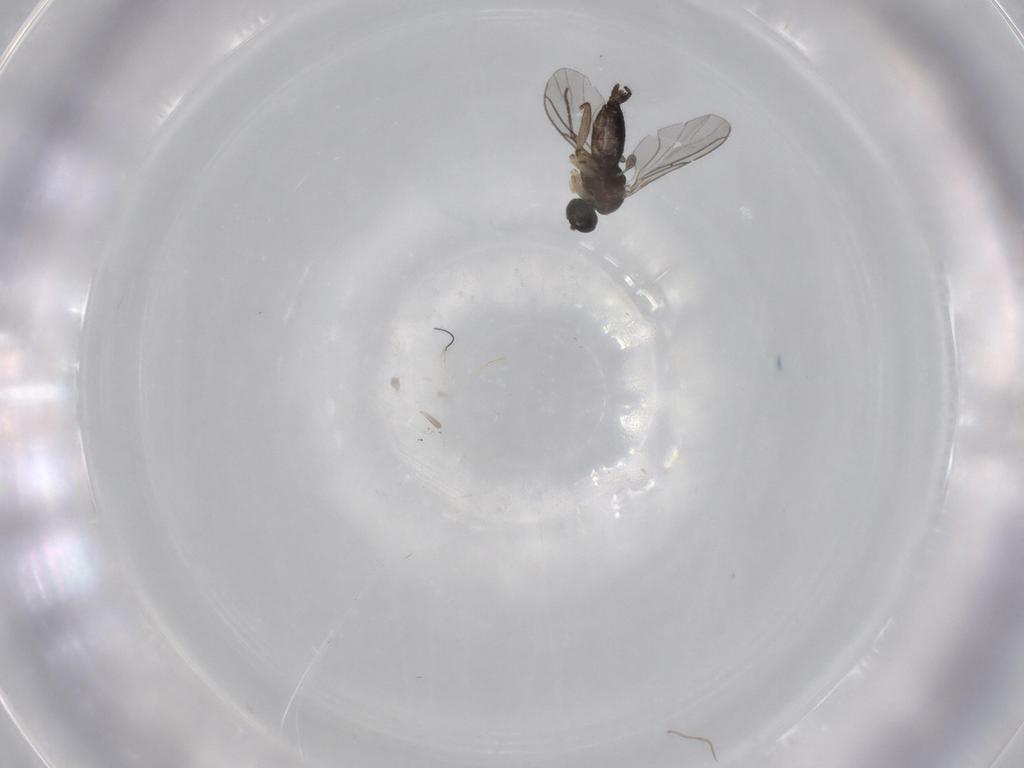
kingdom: Animalia
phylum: Arthropoda
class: Insecta
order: Diptera
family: Sciaridae
